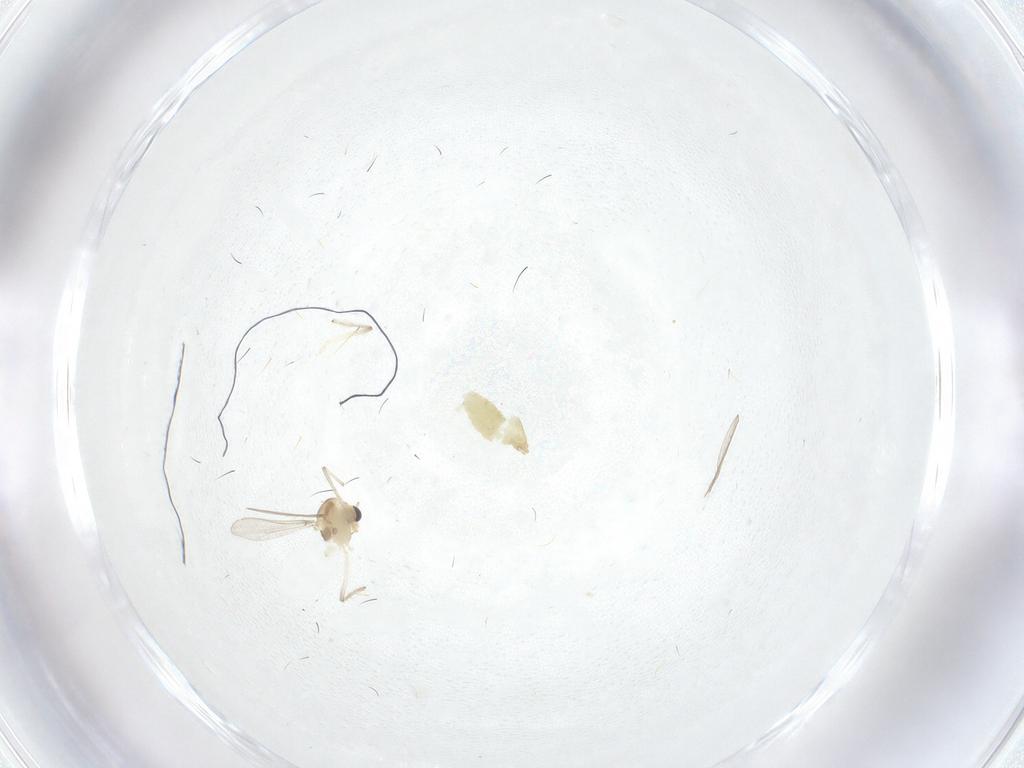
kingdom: Animalia
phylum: Arthropoda
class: Insecta
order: Diptera
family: Chironomidae
